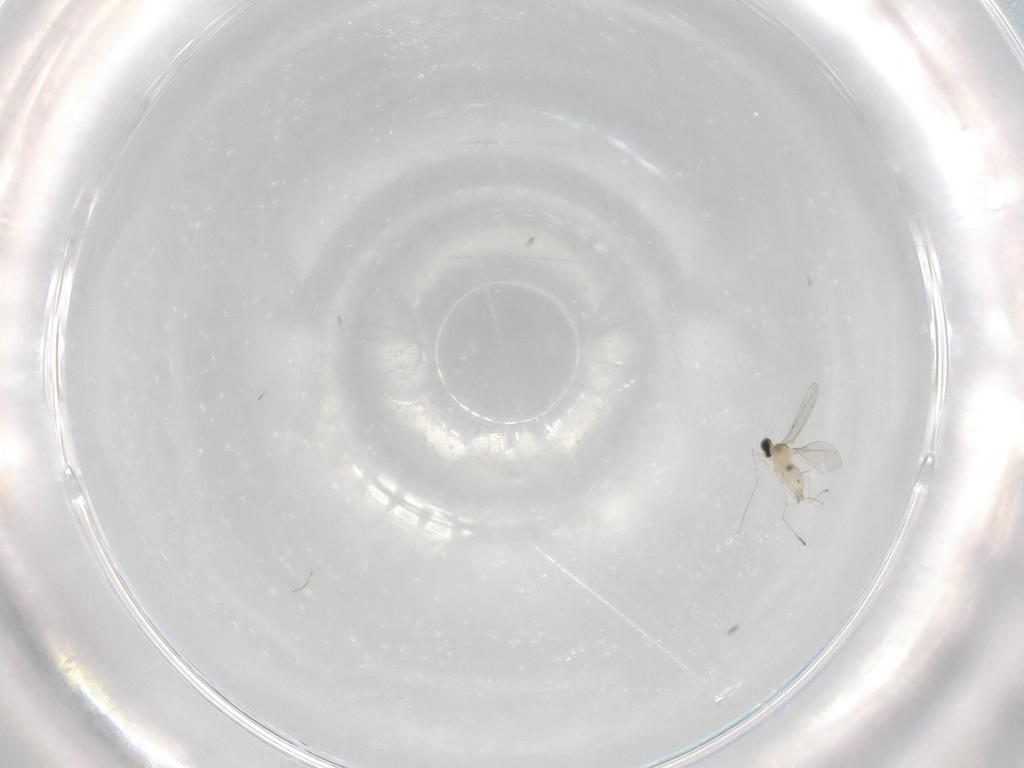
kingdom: Animalia
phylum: Arthropoda
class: Insecta
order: Diptera
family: Cecidomyiidae
